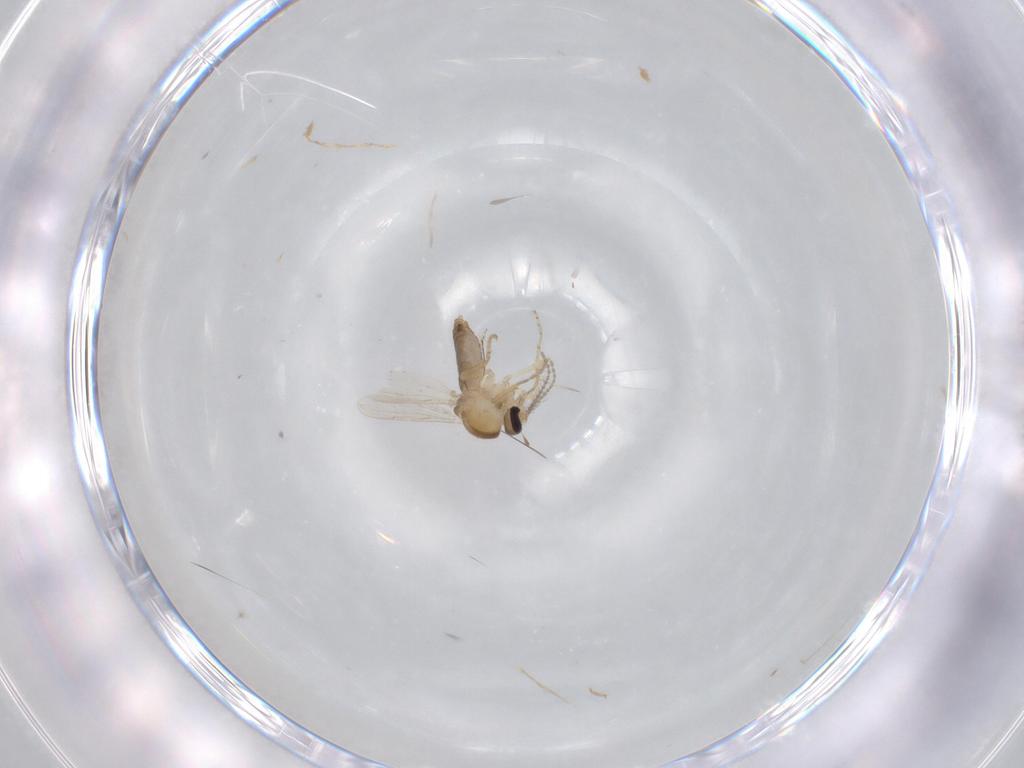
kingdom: Animalia
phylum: Arthropoda
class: Insecta
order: Diptera
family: Ceratopogonidae
